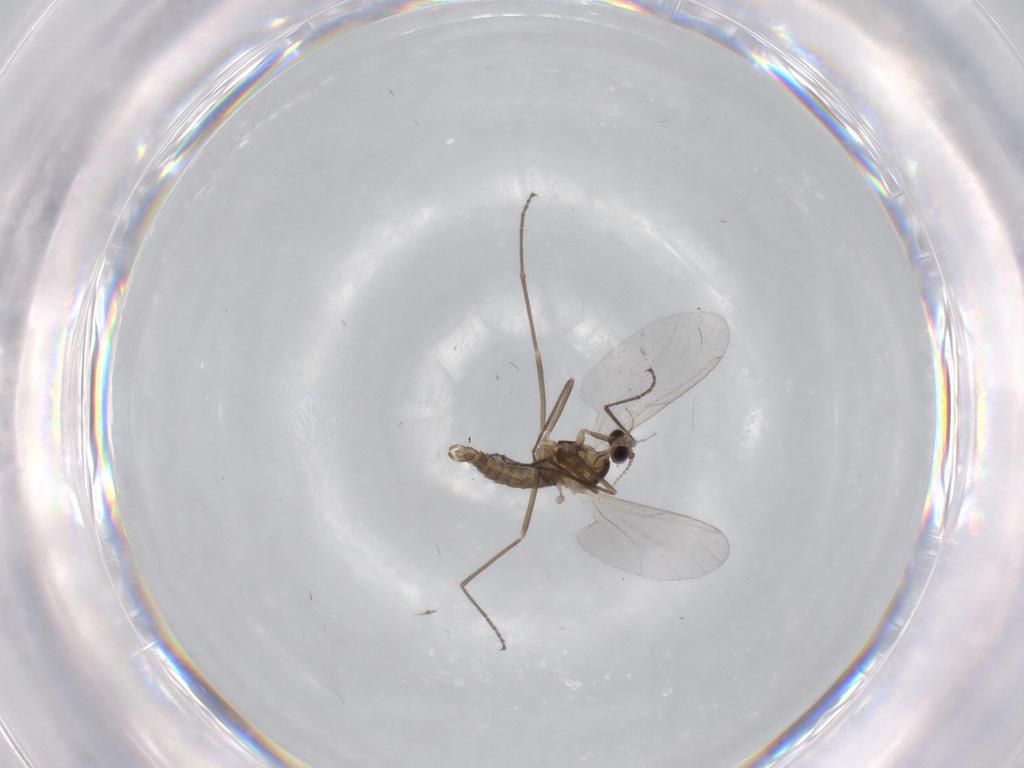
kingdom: Animalia
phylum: Arthropoda
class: Insecta
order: Diptera
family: Cecidomyiidae
